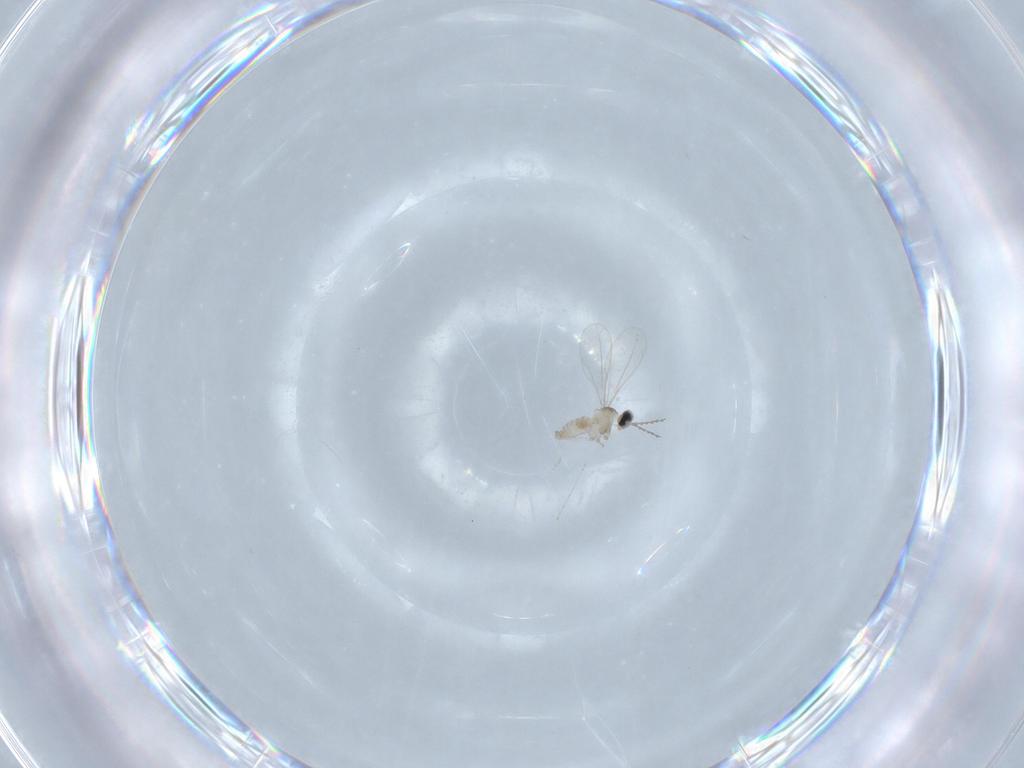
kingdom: Animalia
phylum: Arthropoda
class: Insecta
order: Diptera
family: Cecidomyiidae
